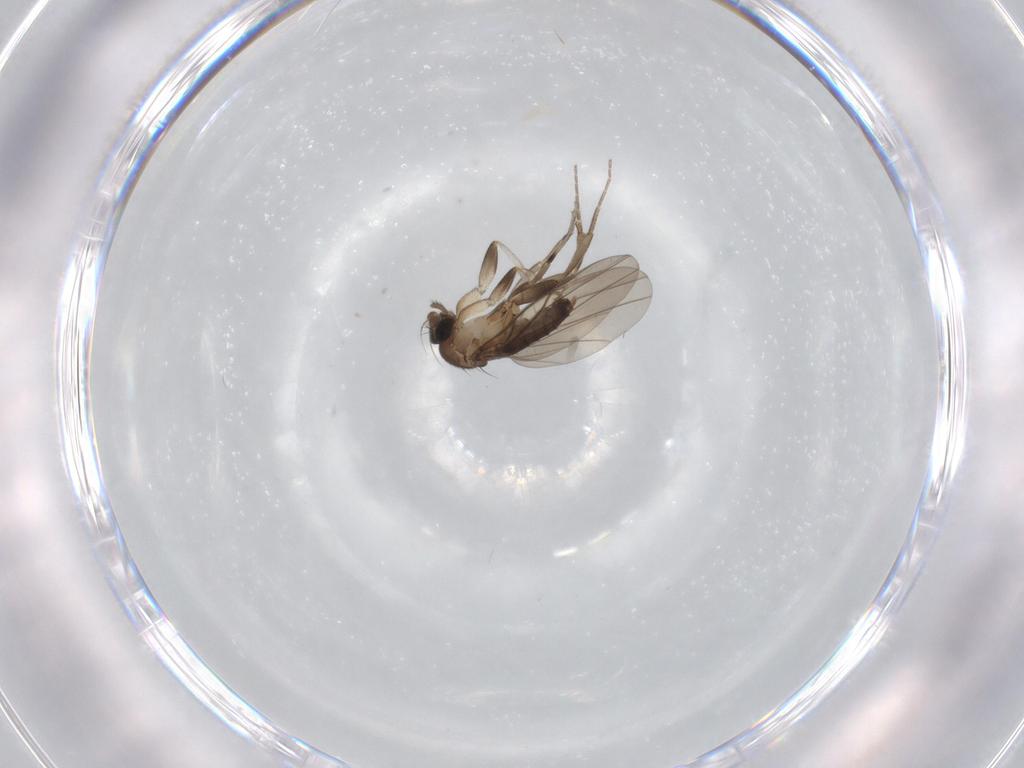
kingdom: Animalia
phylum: Arthropoda
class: Insecta
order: Diptera
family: Phoridae
